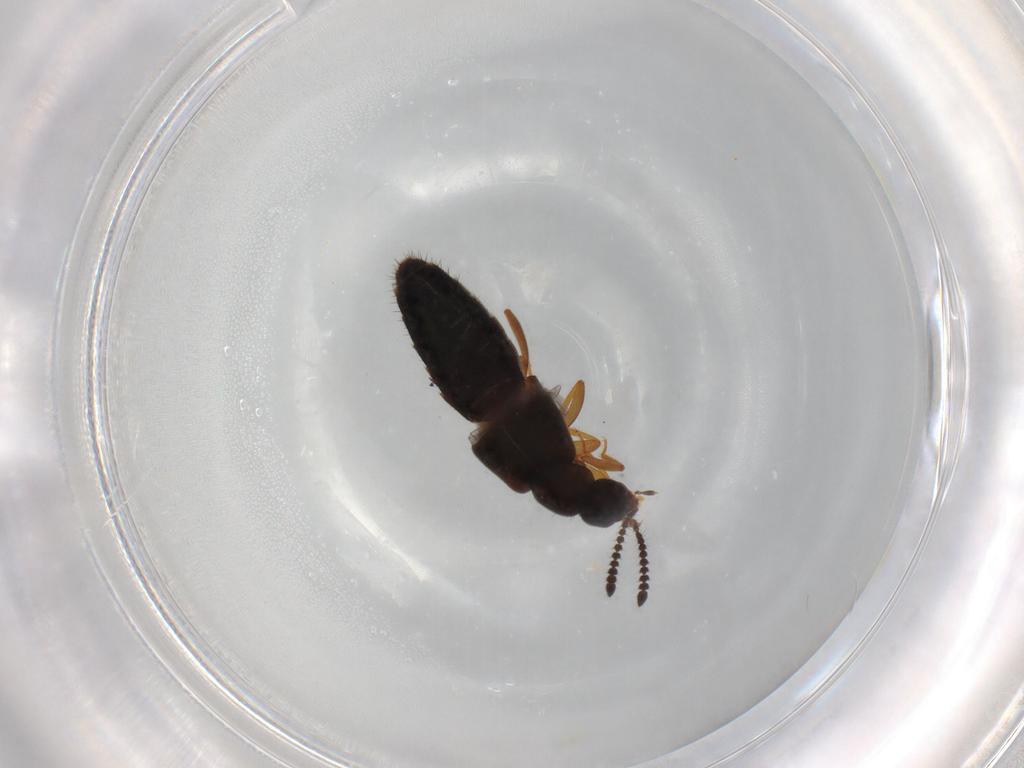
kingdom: Animalia
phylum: Arthropoda
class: Insecta
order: Coleoptera
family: Staphylinidae
